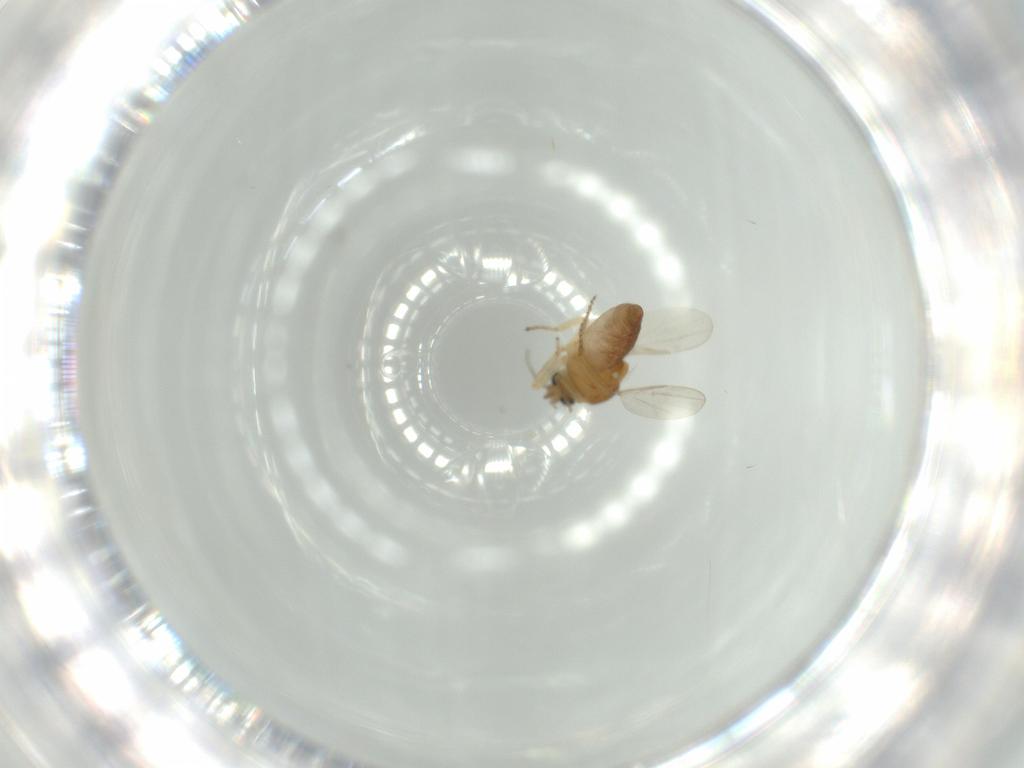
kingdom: Animalia
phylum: Arthropoda
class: Insecta
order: Diptera
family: Ceratopogonidae
